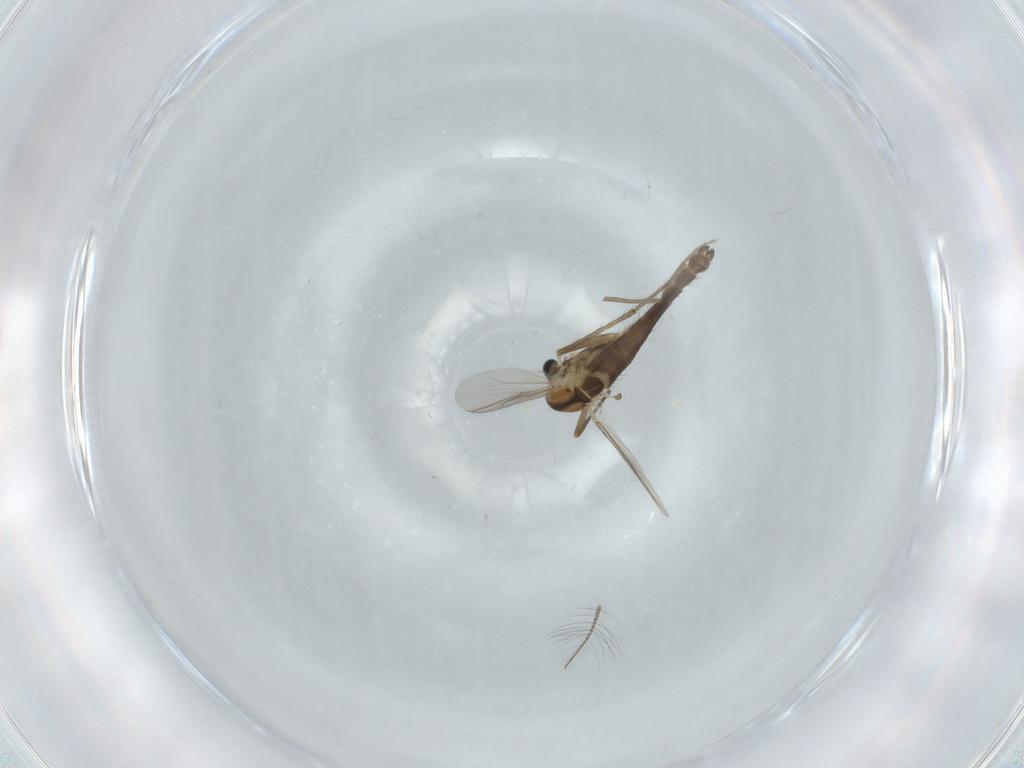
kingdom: Animalia
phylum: Arthropoda
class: Insecta
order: Diptera
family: Chironomidae
